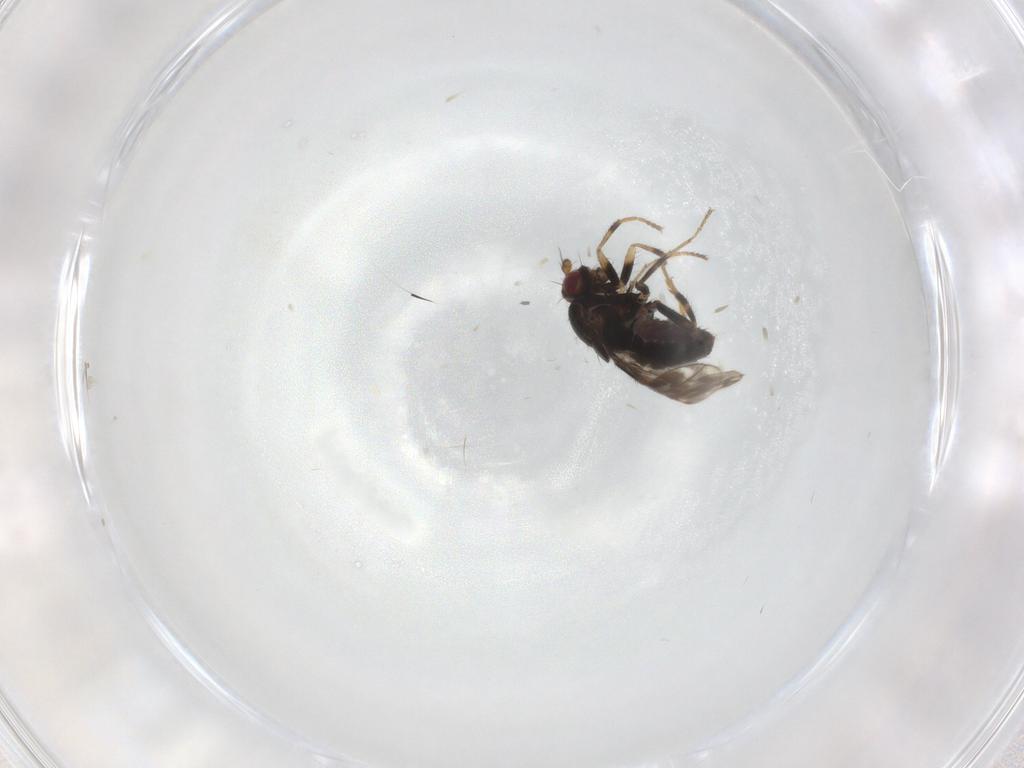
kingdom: Animalia
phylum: Arthropoda
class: Insecta
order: Diptera
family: Sphaeroceridae
